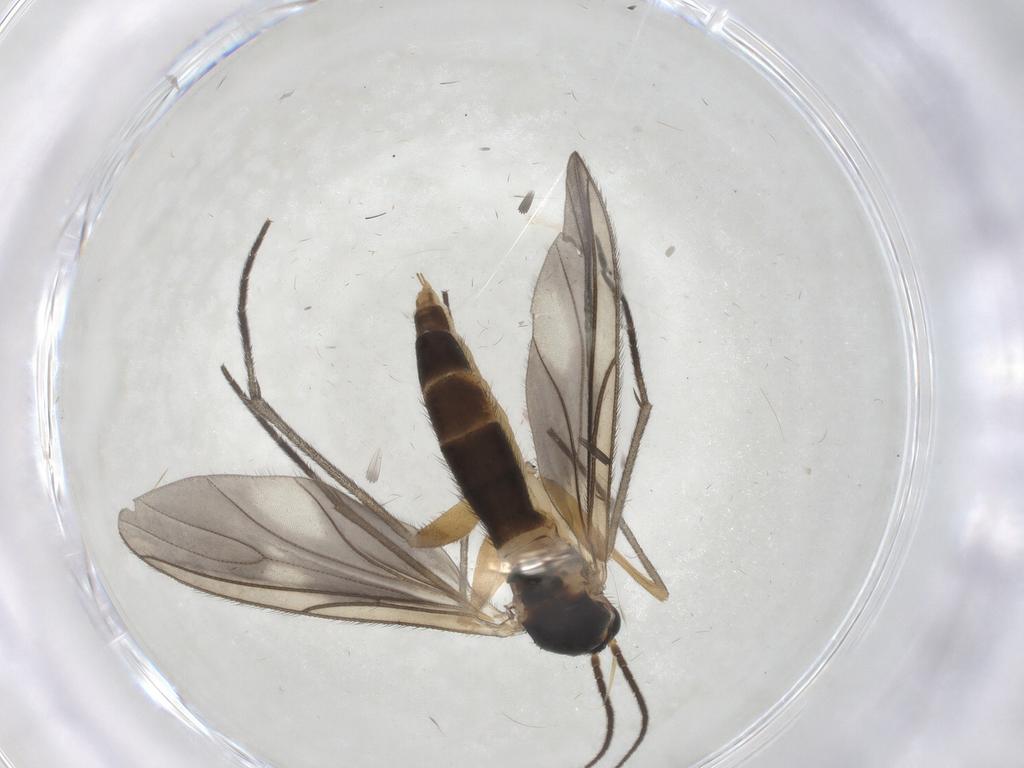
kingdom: Animalia
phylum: Arthropoda
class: Insecta
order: Diptera
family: Sciaridae
